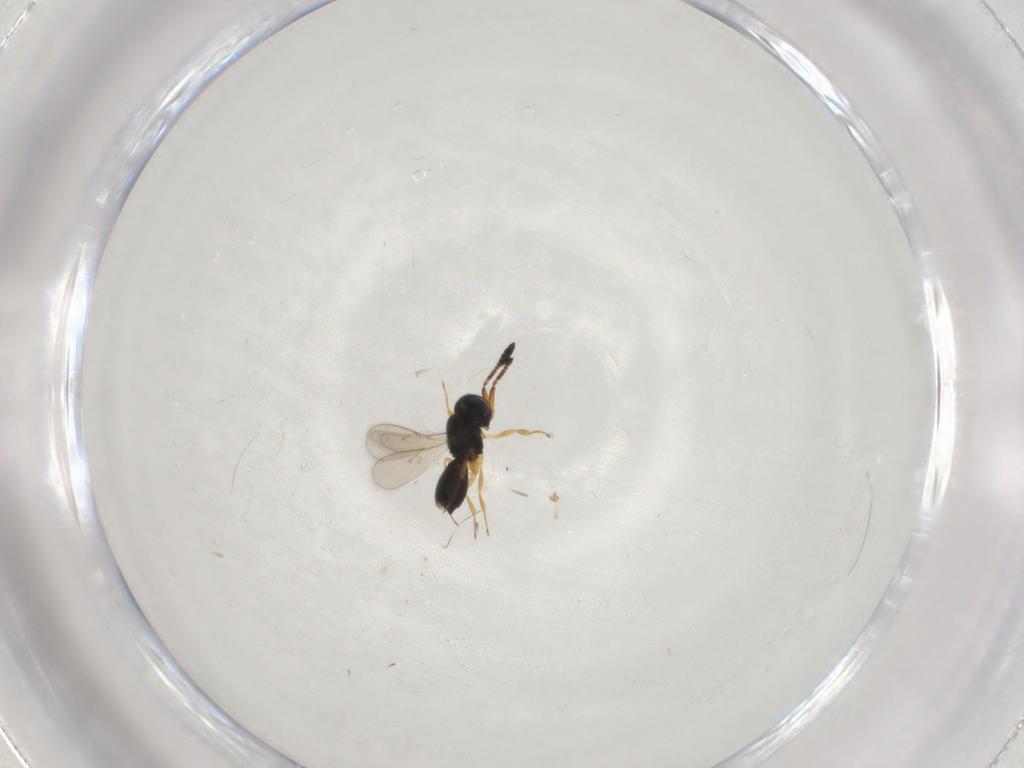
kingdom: Animalia
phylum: Arthropoda
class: Insecta
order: Hymenoptera
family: Scelionidae
